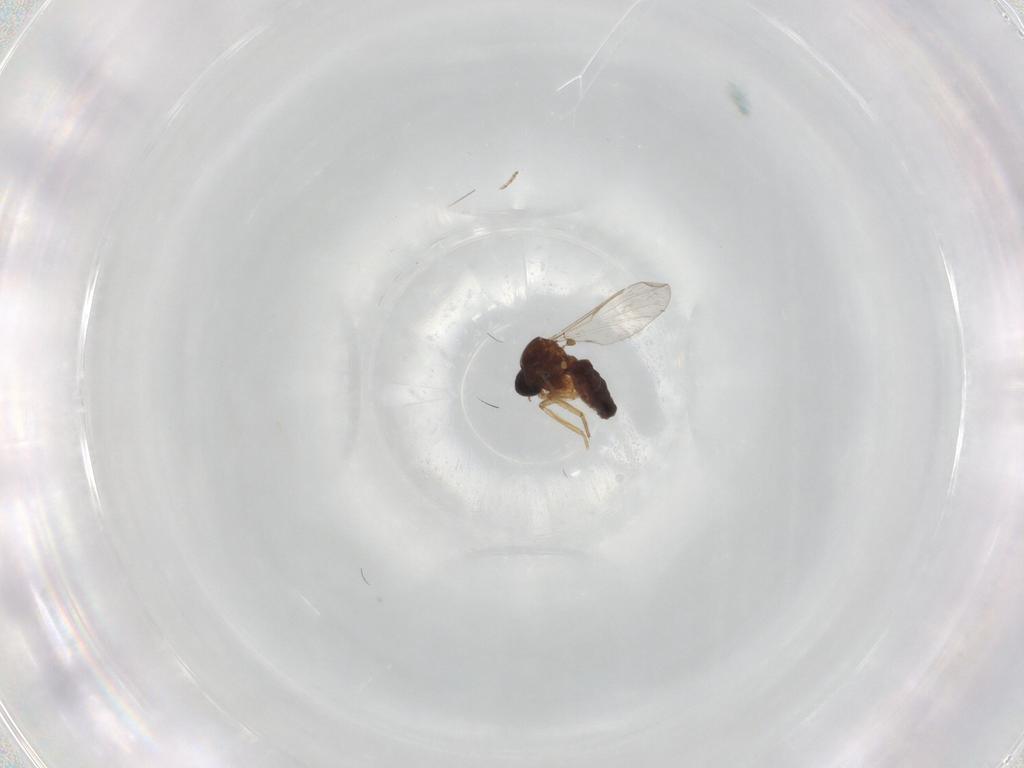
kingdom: Animalia
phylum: Arthropoda
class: Insecta
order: Diptera
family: Ceratopogonidae
